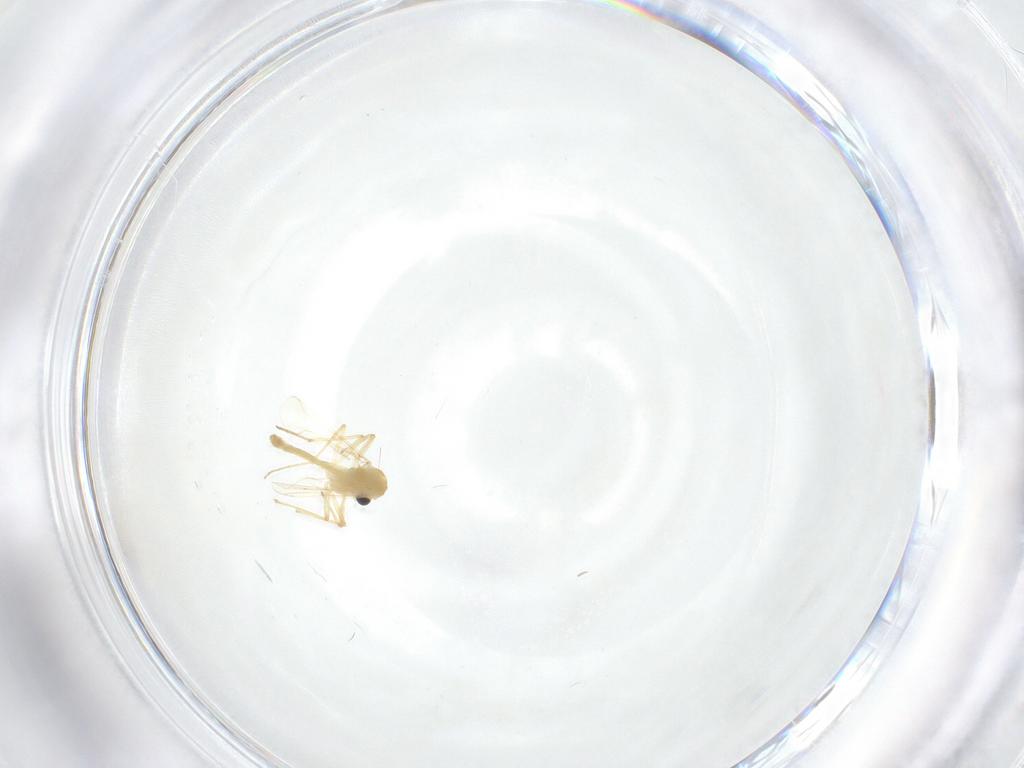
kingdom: Animalia
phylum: Arthropoda
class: Insecta
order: Diptera
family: Chironomidae
